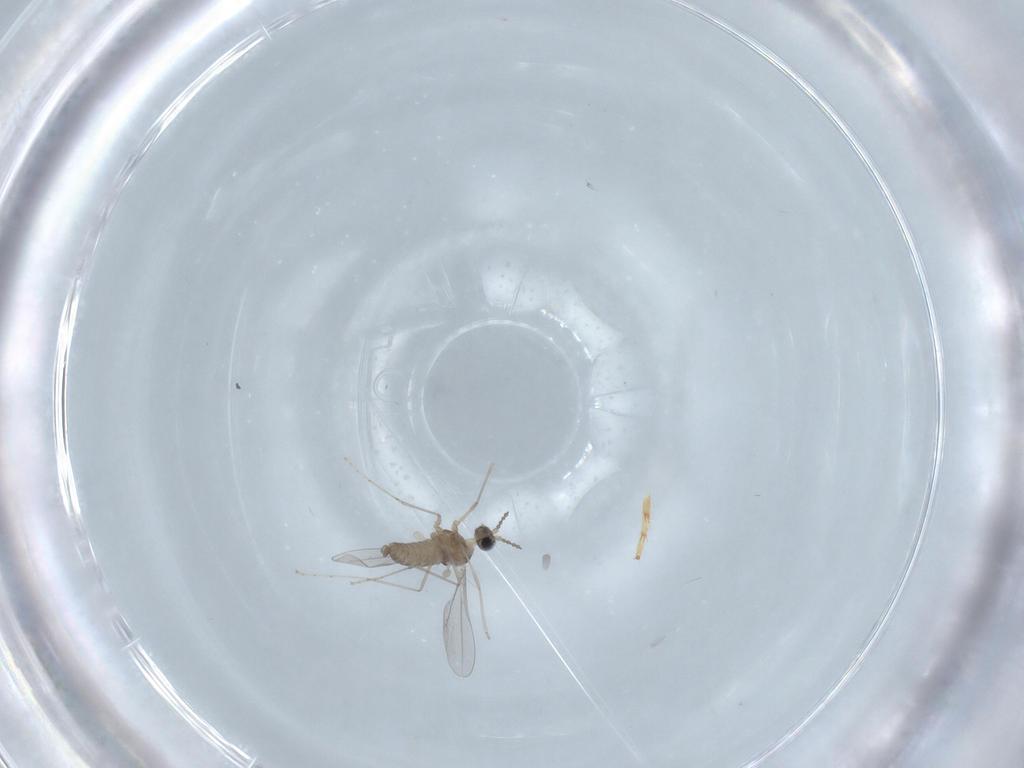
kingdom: Animalia
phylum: Arthropoda
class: Insecta
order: Diptera
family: Cecidomyiidae
